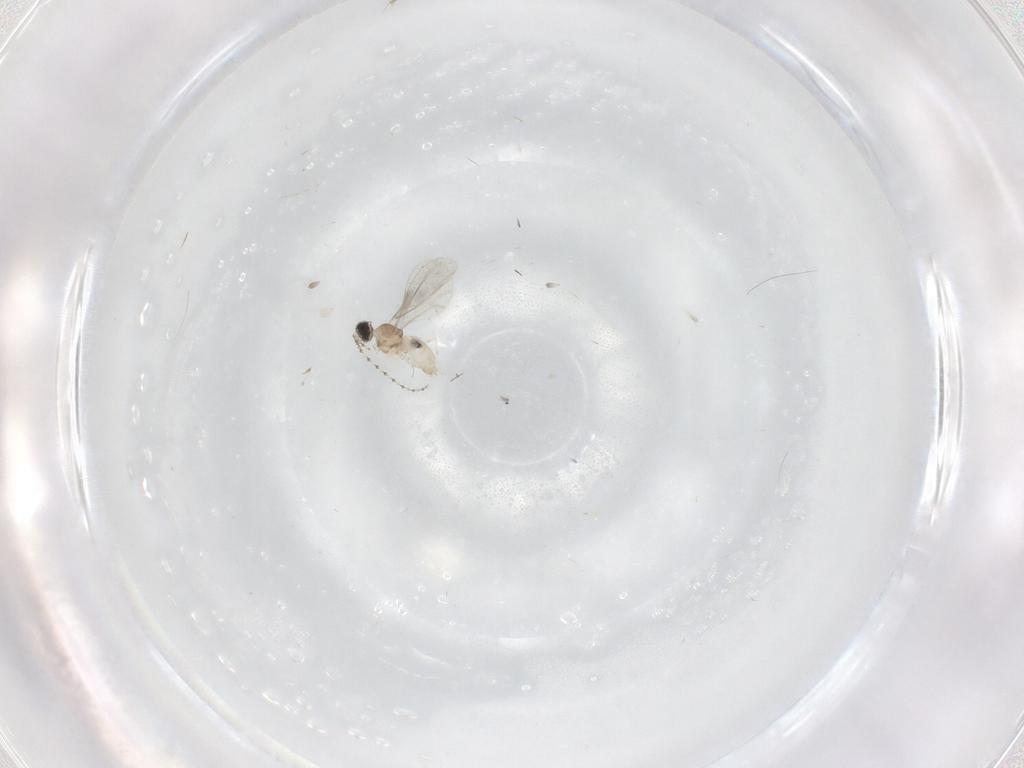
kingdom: Animalia
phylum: Arthropoda
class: Insecta
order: Diptera
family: Cecidomyiidae
